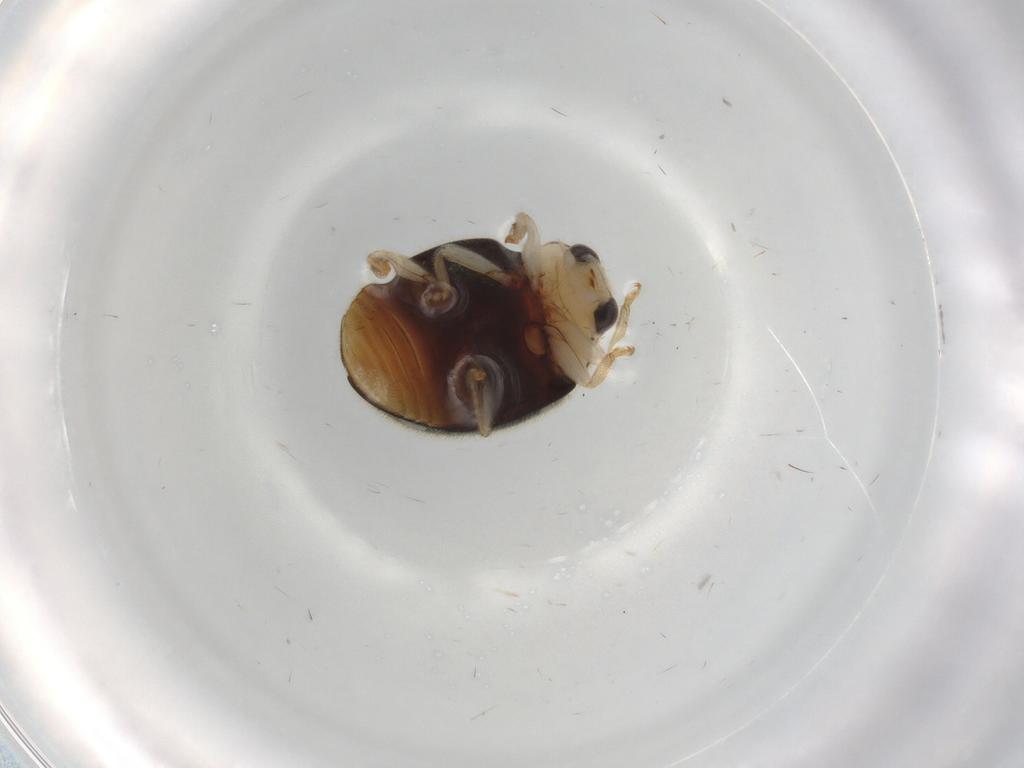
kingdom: Animalia
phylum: Arthropoda
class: Insecta
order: Coleoptera
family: Coccinellidae
